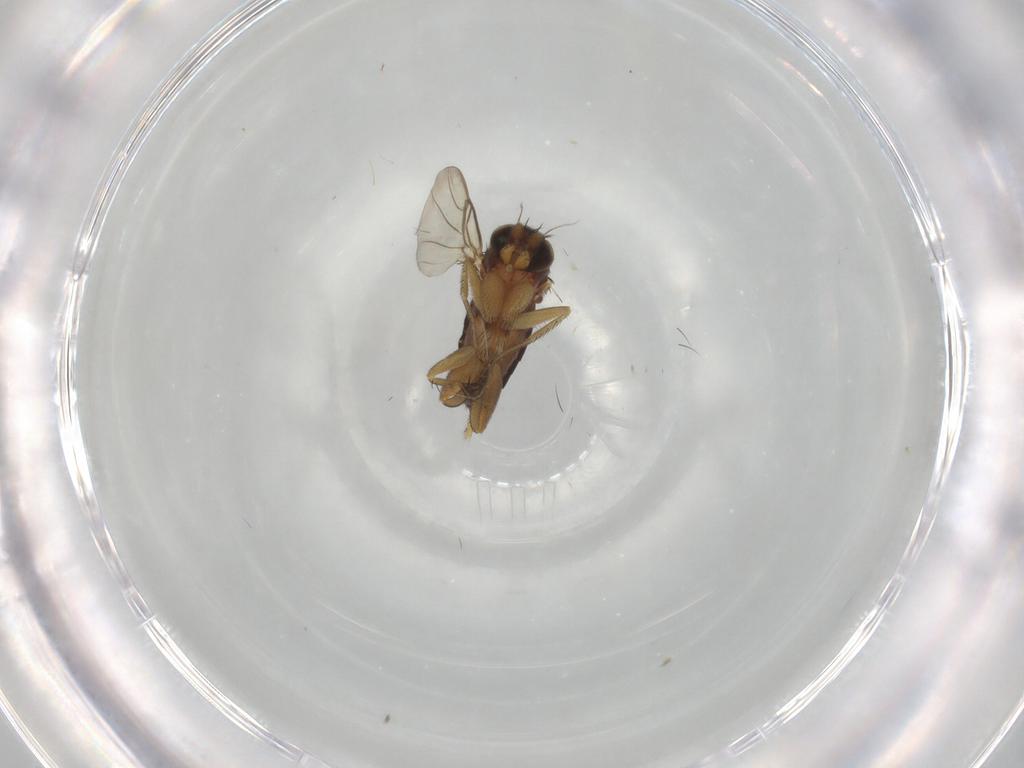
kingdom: Animalia
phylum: Arthropoda
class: Insecta
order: Diptera
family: Phoridae
